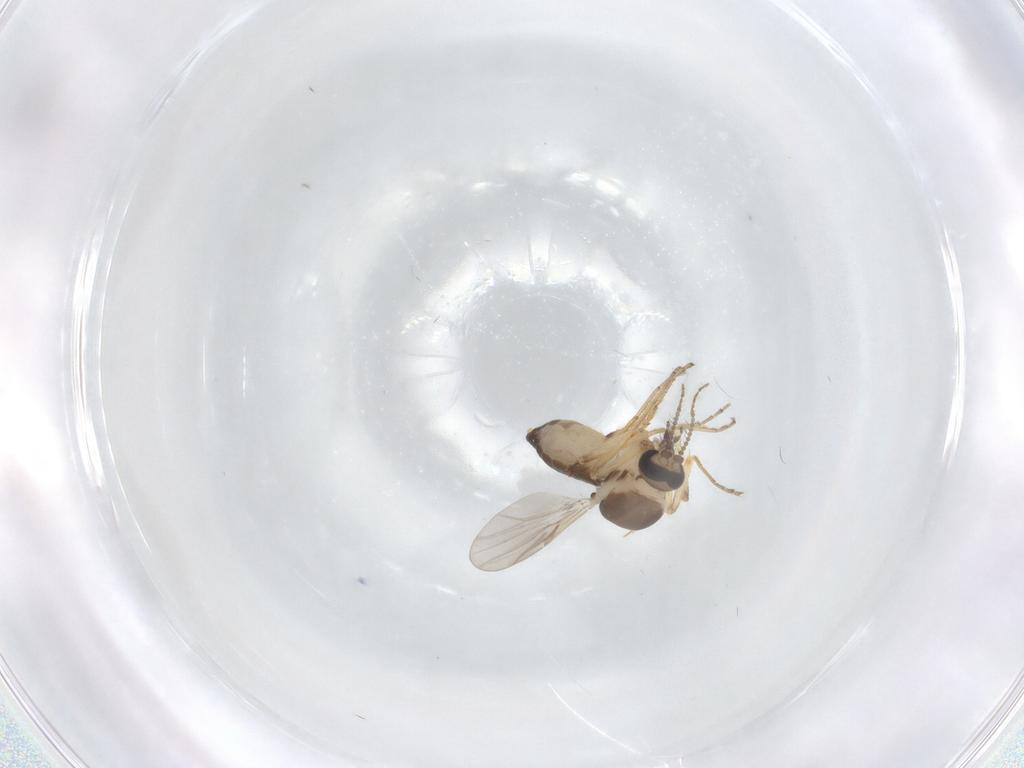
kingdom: Animalia
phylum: Arthropoda
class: Insecta
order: Diptera
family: Ceratopogonidae
